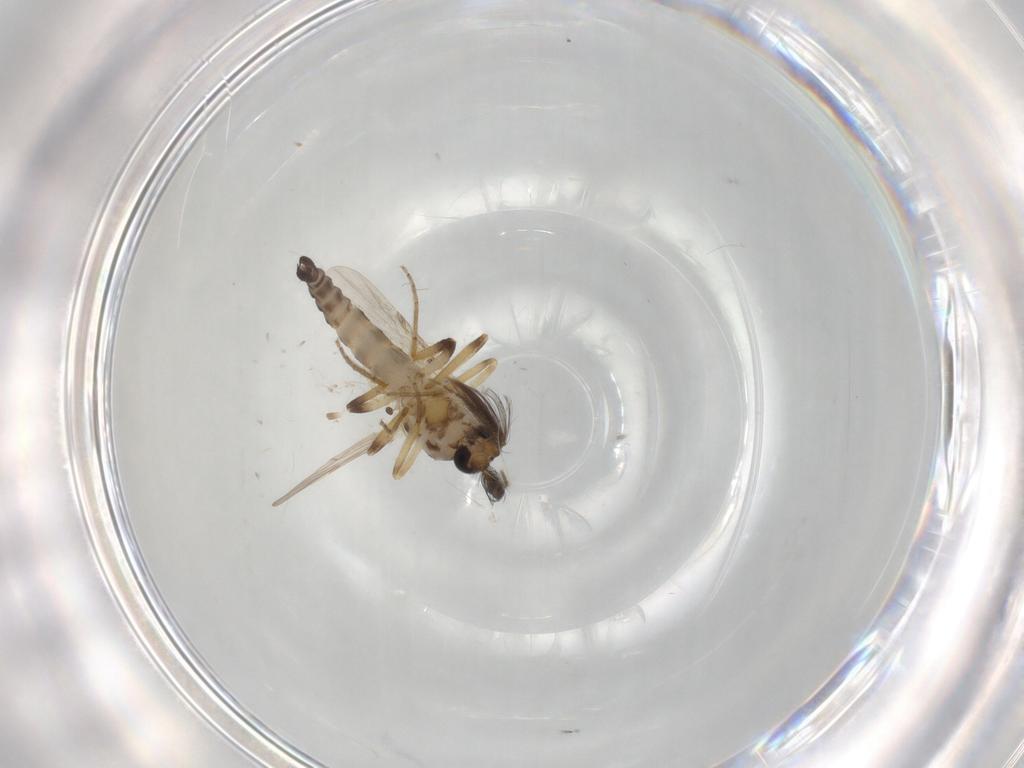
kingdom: Animalia
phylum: Arthropoda
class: Insecta
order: Diptera
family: Ceratopogonidae
